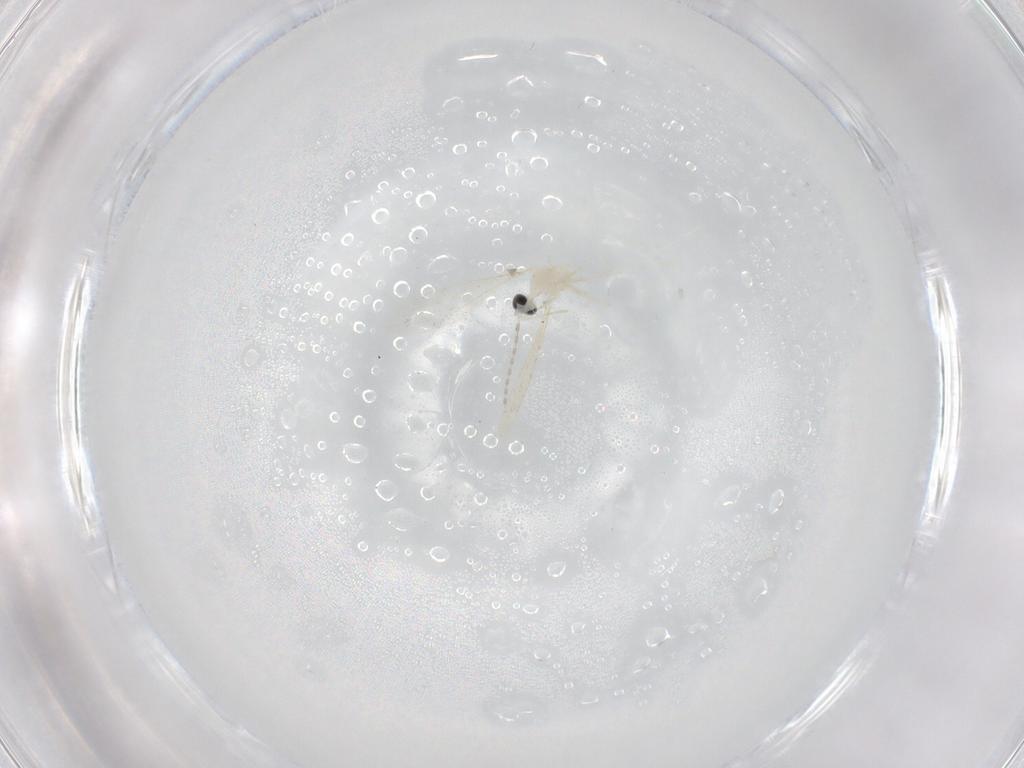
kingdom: Animalia
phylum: Arthropoda
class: Insecta
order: Diptera
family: Cecidomyiidae
